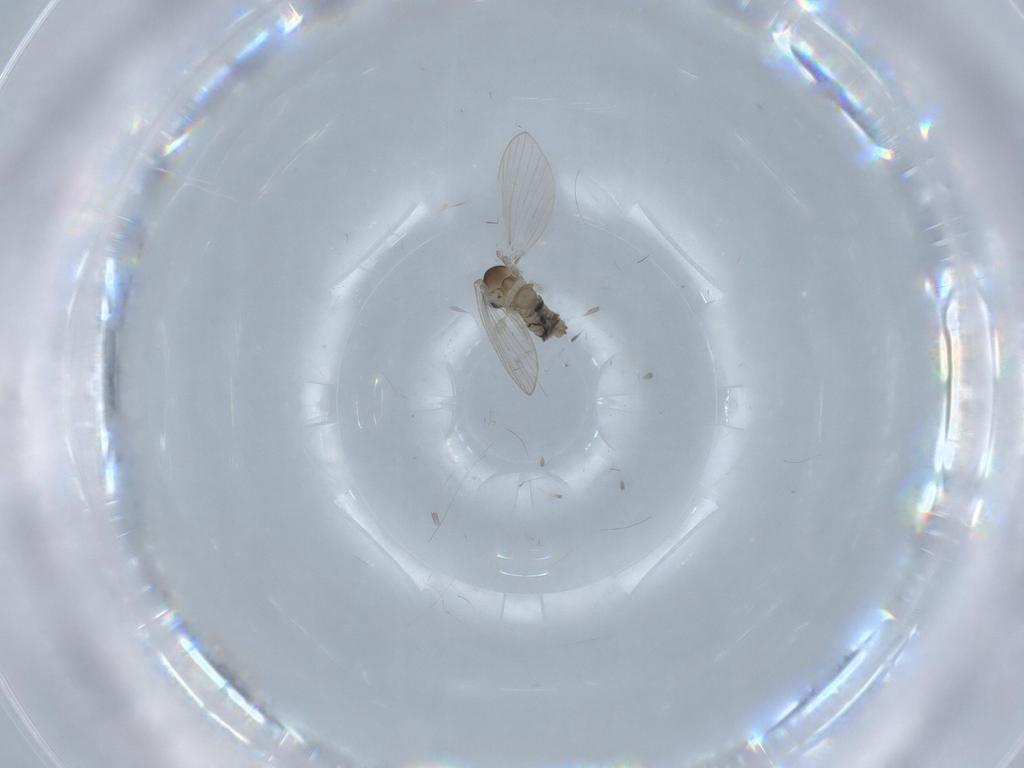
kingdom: Animalia
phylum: Arthropoda
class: Insecta
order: Diptera
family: Psychodidae
